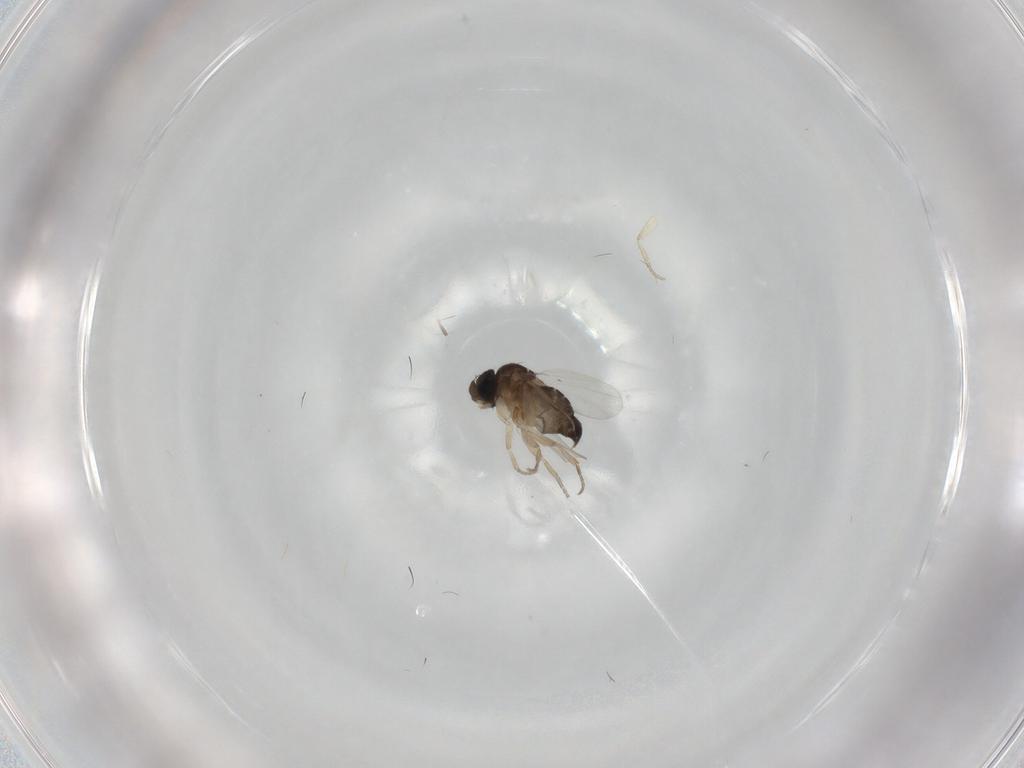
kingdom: Animalia
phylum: Arthropoda
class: Insecta
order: Diptera
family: Phoridae
